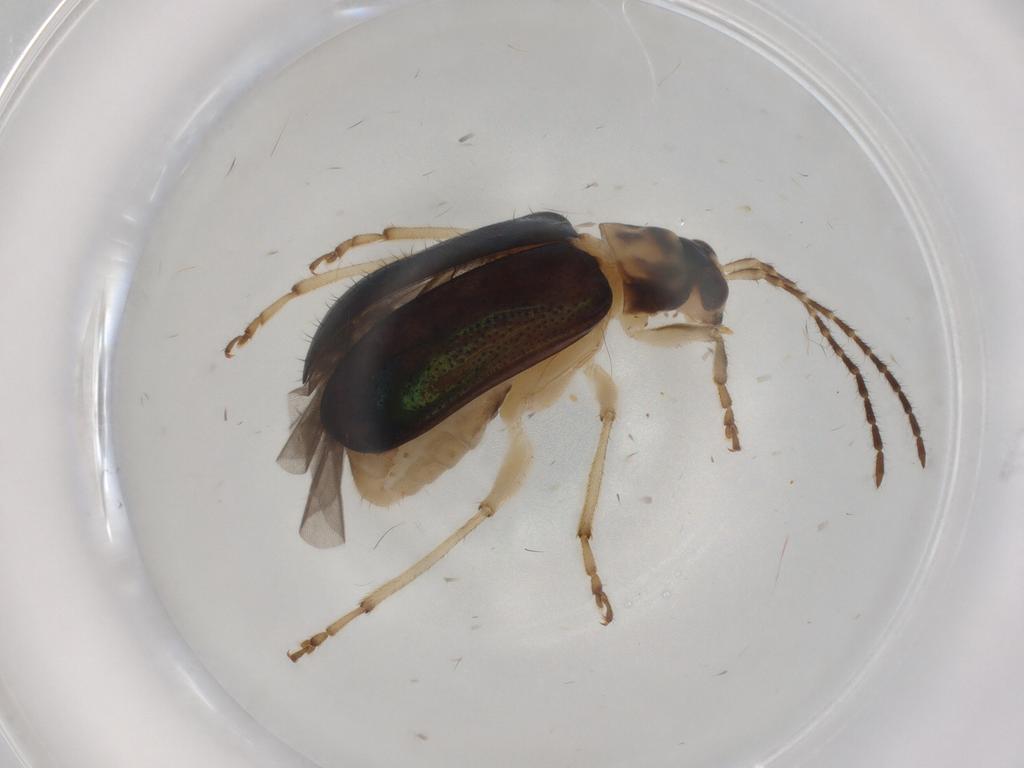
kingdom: Animalia
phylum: Arthropoda
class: Insecta
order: Coleoptera
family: Chrysomelidae
